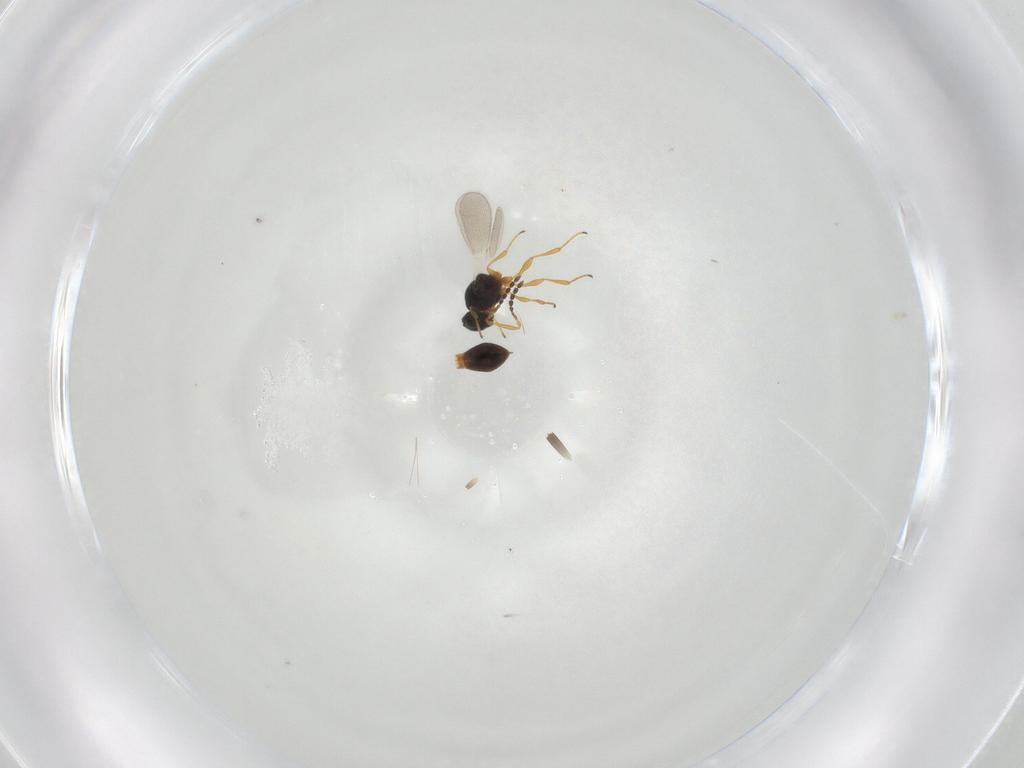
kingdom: Animalia
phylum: Arthropoda
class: Insecta
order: Hymenoptera
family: Platygastridae
